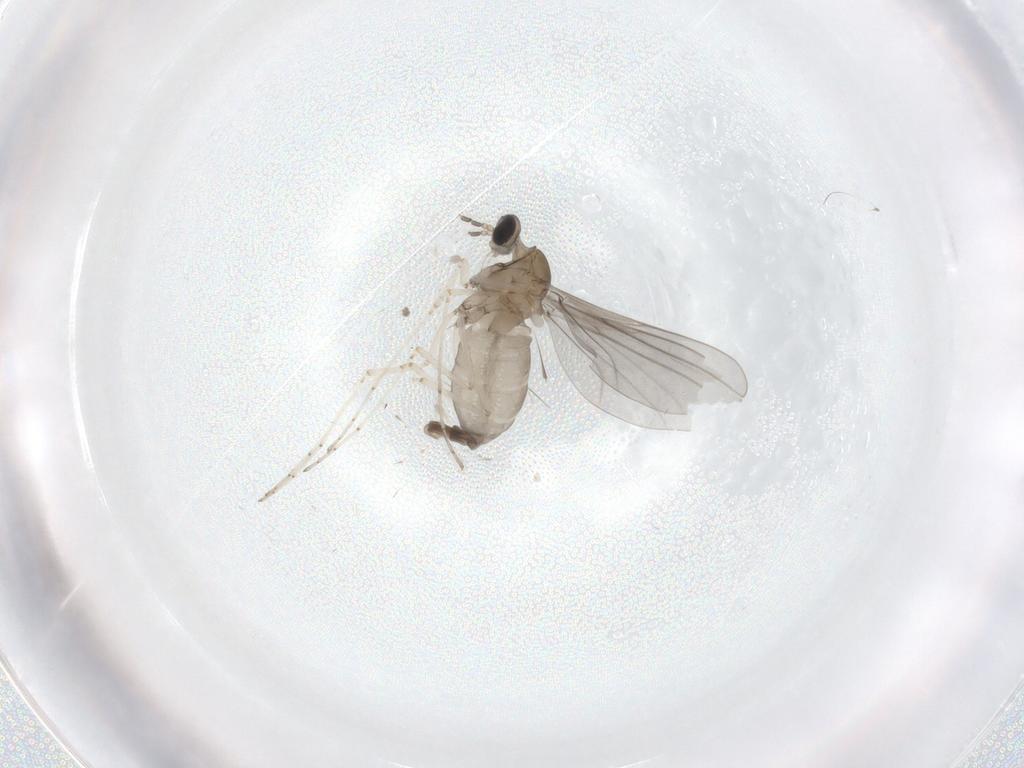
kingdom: Animalia
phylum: Arthropoda
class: Insecta
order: Diptera
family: Cecidomyiidae
